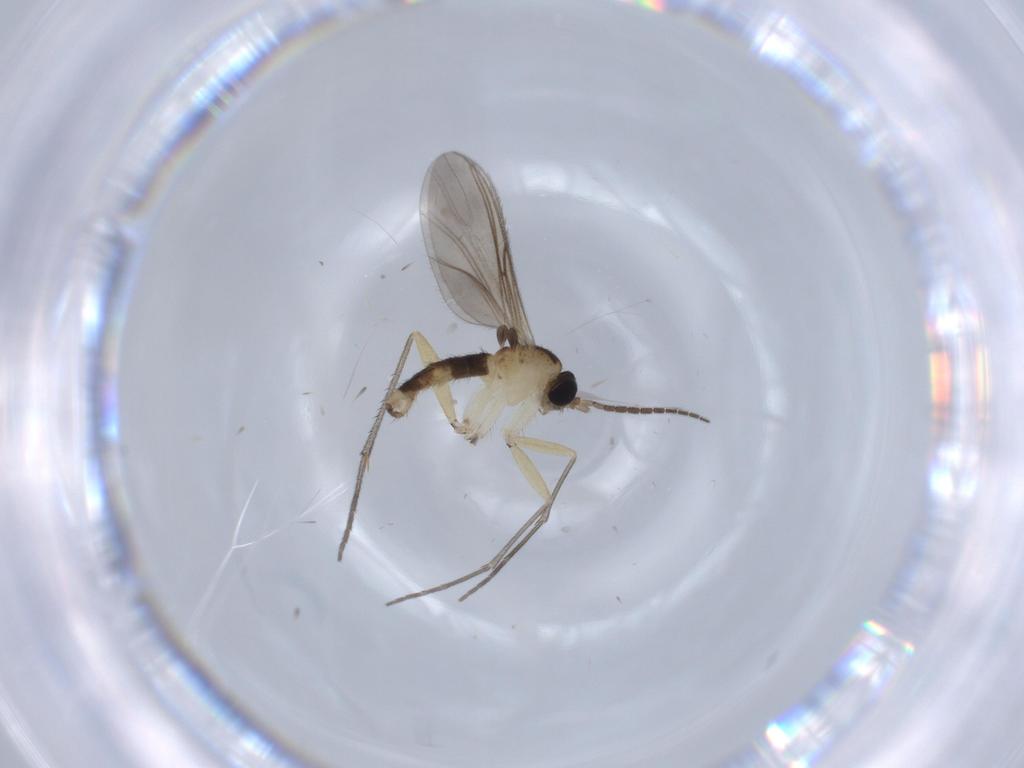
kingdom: Animalia
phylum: Arthropoda
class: Insecta
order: Diptera
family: Sciaridae
